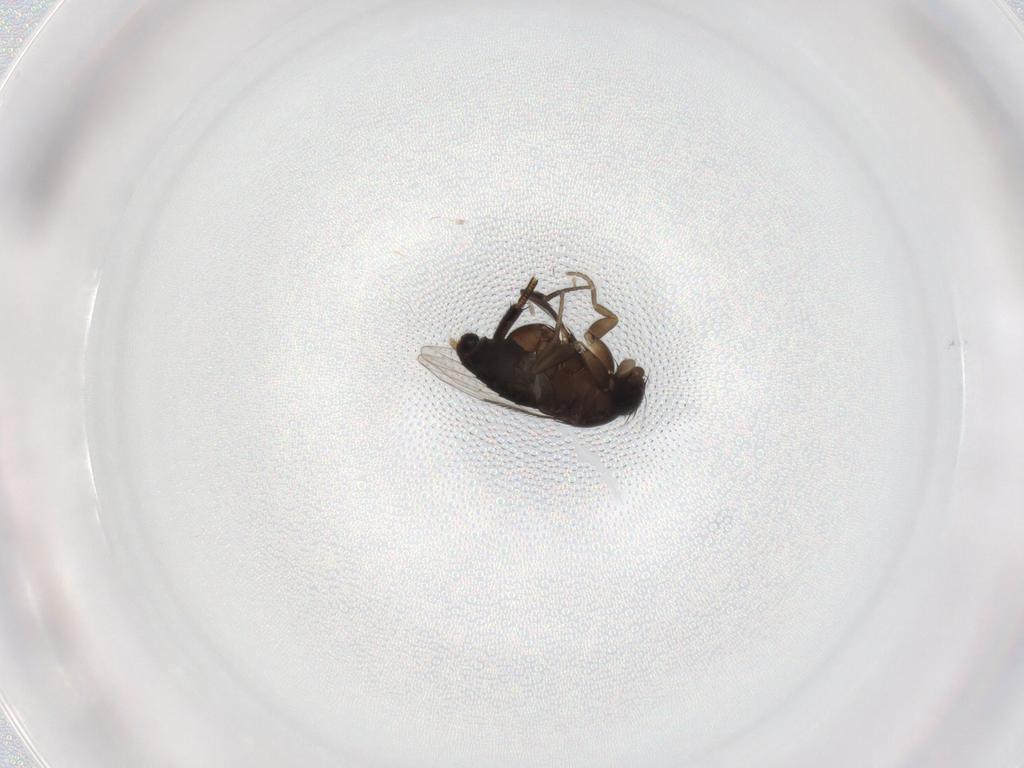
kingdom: Animalia
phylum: Arthropoda
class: Insecta
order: Diptera
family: Phoridae
